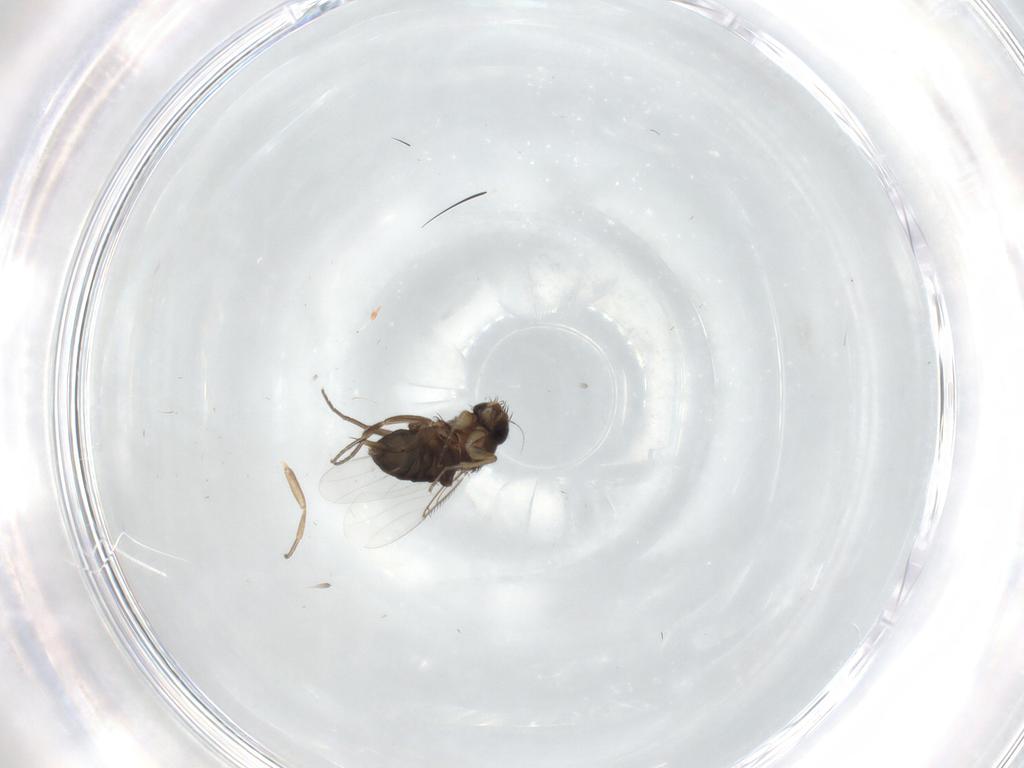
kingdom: Animalia
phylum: Arthropoda
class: Insecta
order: Diptera
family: Phoridae
